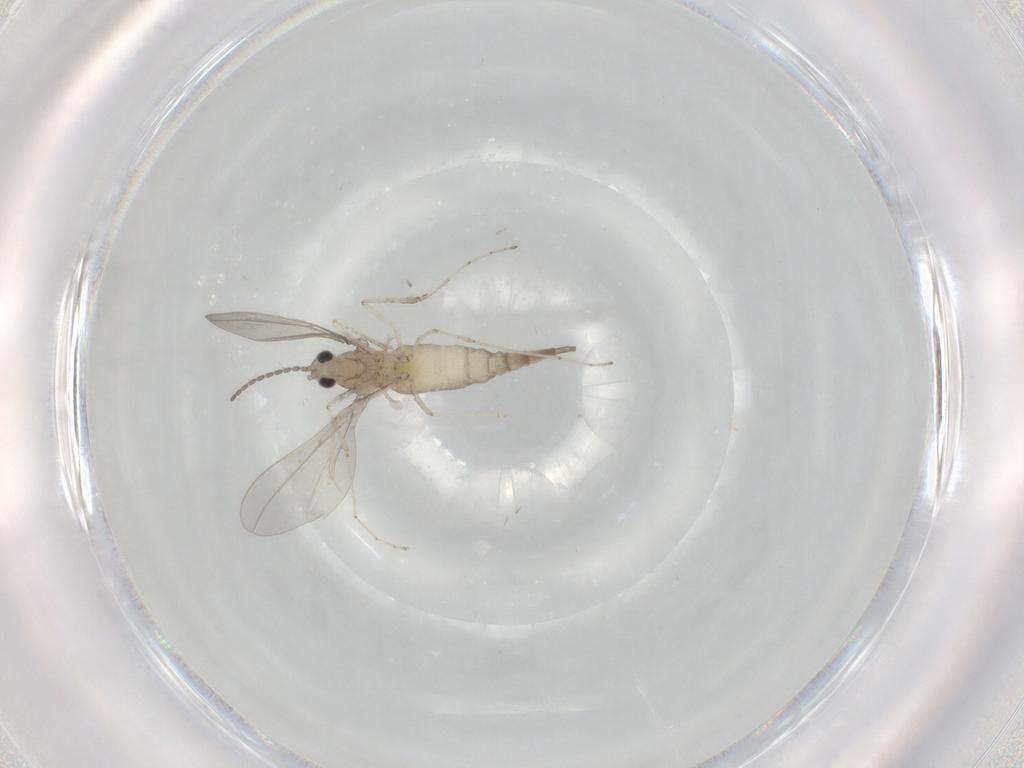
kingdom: Animalia
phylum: Arthropoda
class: Insecta
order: Diptera
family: Cecidomyiidae
